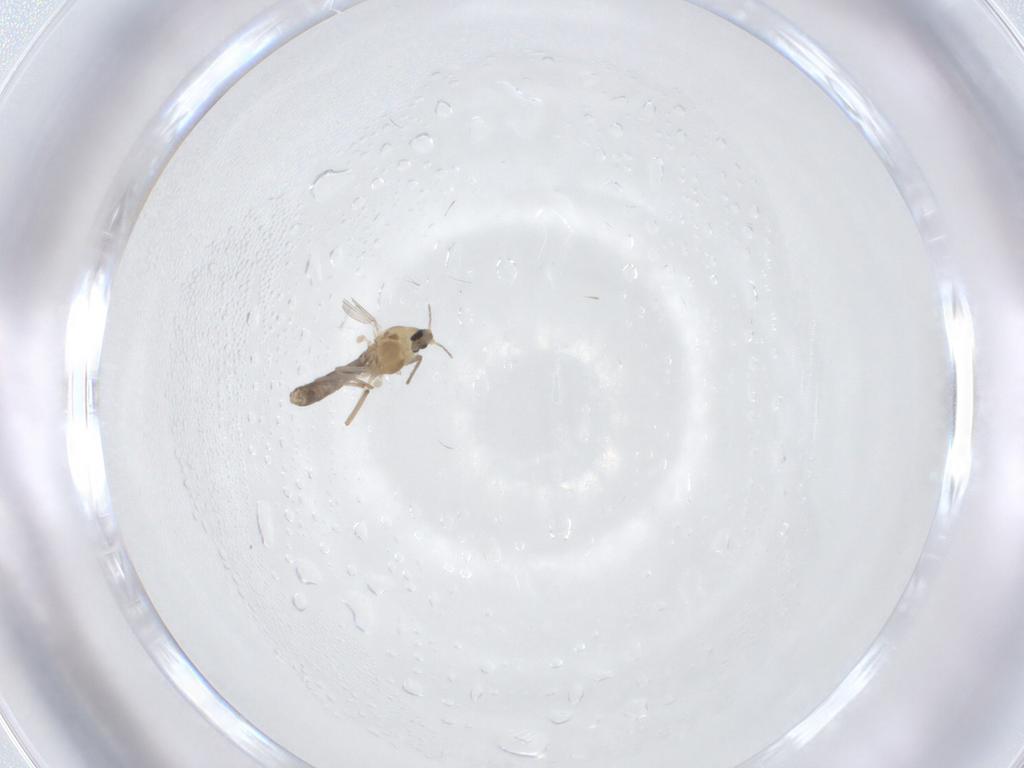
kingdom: Animalia
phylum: Arthropoda
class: Insecta
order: Diptera
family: Chironomidae
